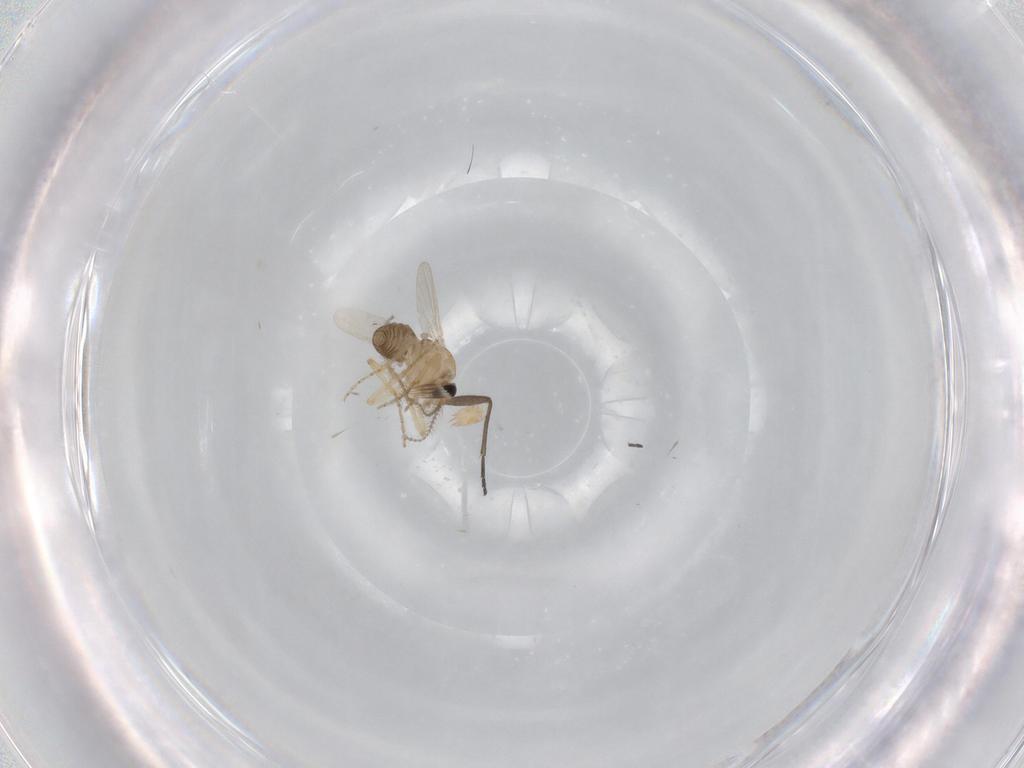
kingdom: Animalia
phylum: Arthropoda
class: Insecta
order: Diptera
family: Ceratopogonidae
